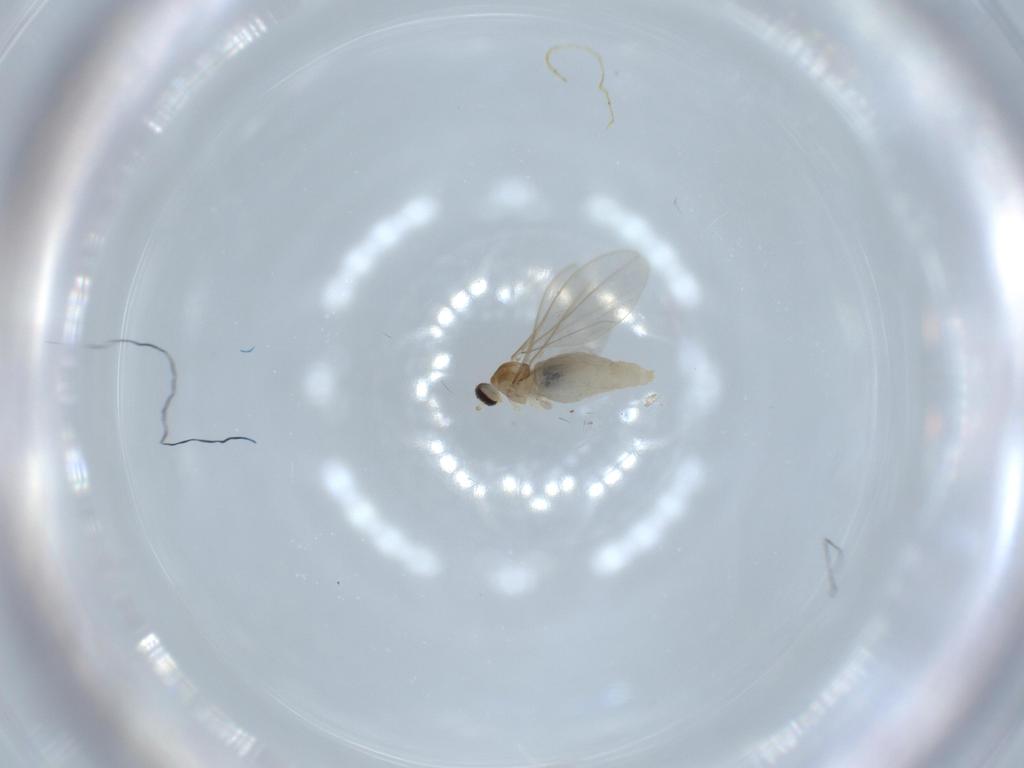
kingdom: Animalia
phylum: Arthropoda
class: Insecta
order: Diptera
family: Cecidomyiidae
